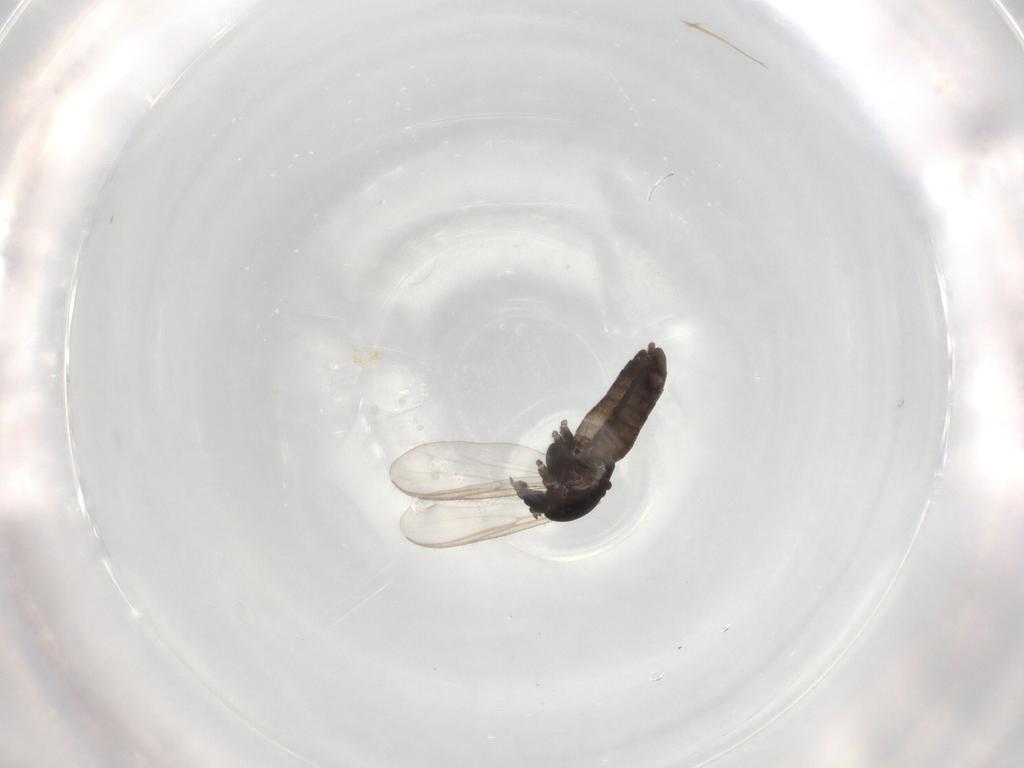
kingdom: Animalia
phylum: Arthropoda
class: Insecta
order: Diptera
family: Chironomidae
